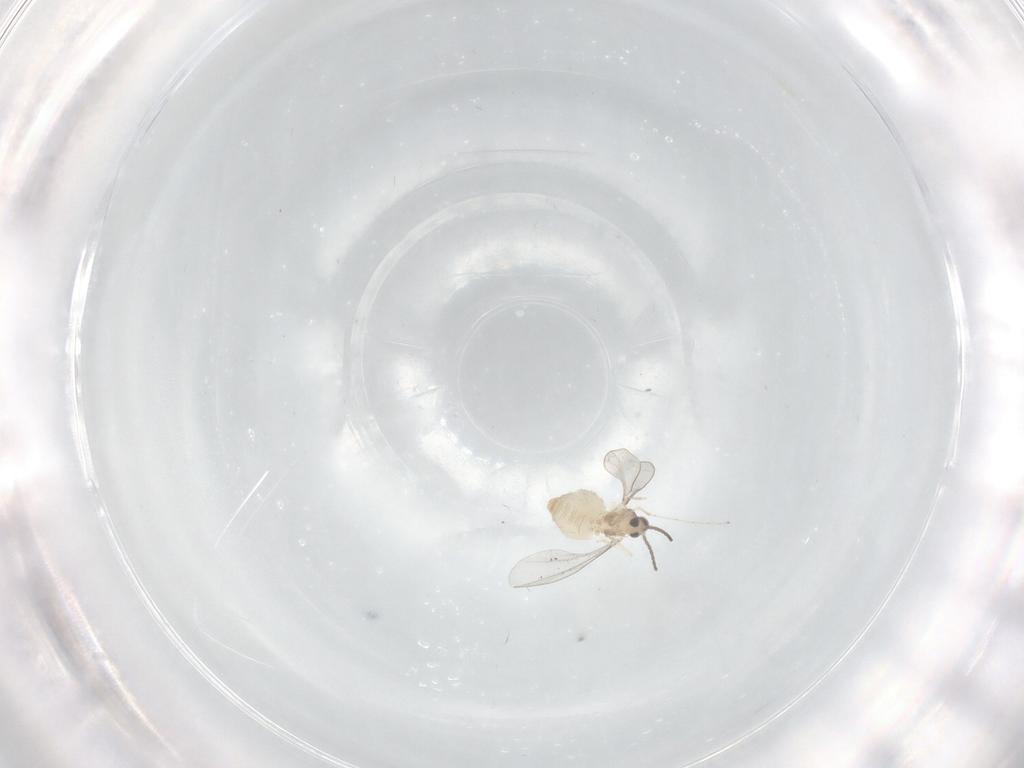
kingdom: Animalia
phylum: Arthropoda
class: Insecta
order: Diptera
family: Cecidomyiidae
